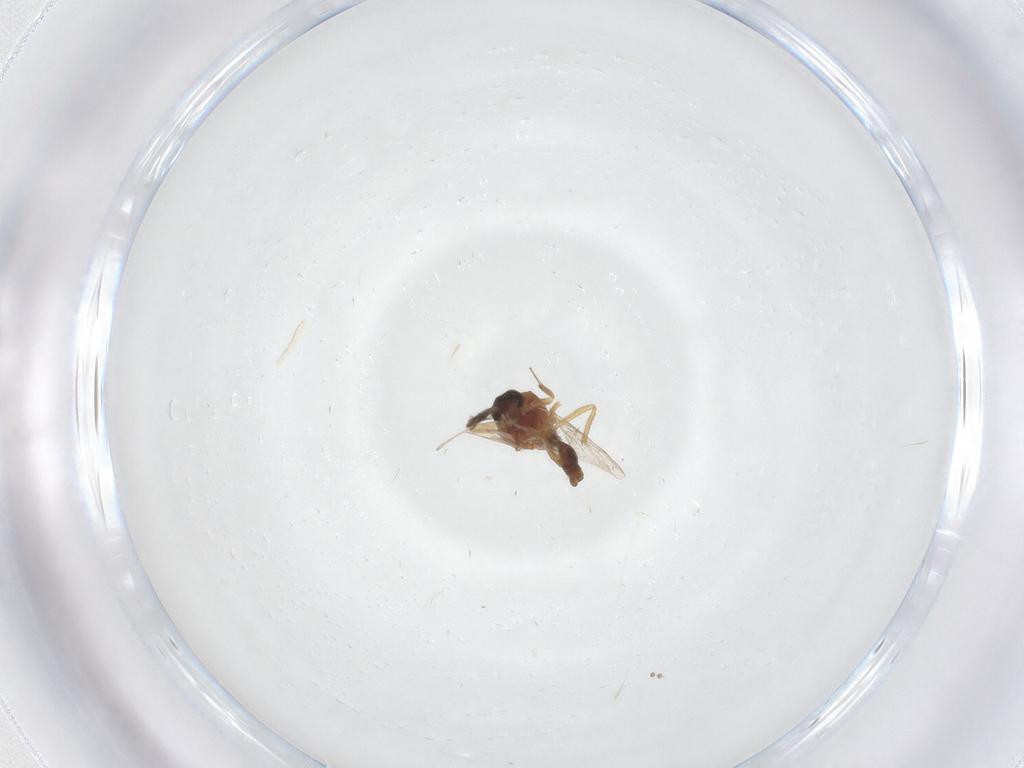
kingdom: Animalia
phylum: Arthropoda
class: Insecta
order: Diptera
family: Ceratopogonidae
